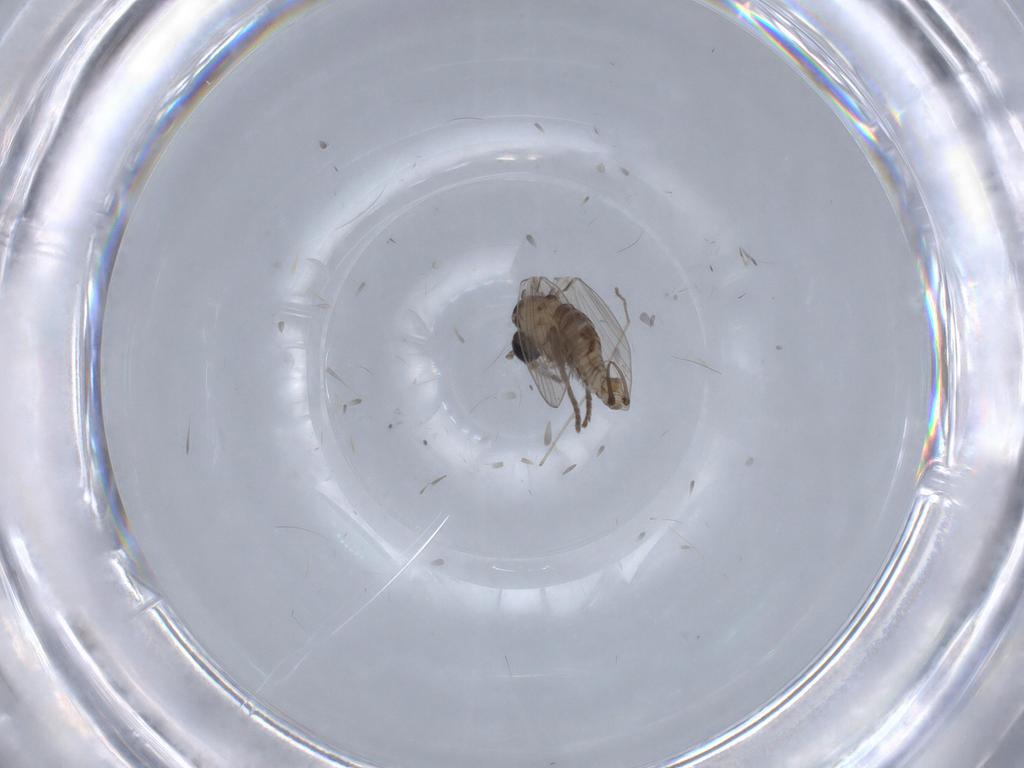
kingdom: Animalia
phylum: Arthropoda
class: Insecta
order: Diptera
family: Psychodidae
